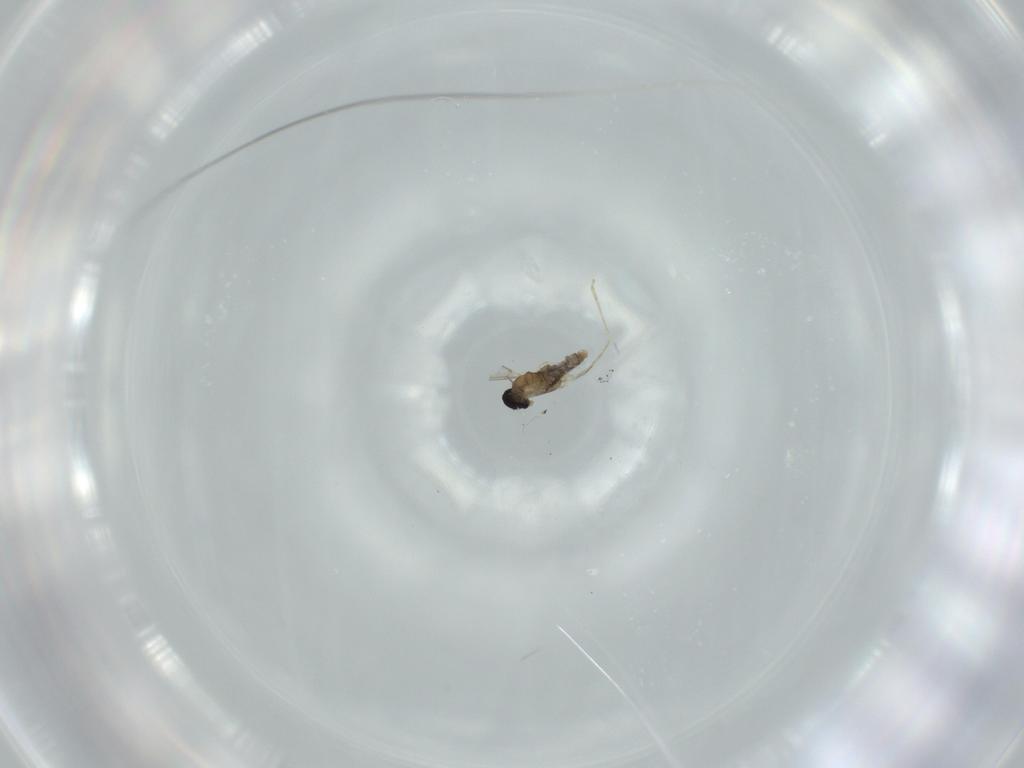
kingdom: Animalia
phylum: Arthropoda
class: Insecta
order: Diptera
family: Cecidomyiidae
